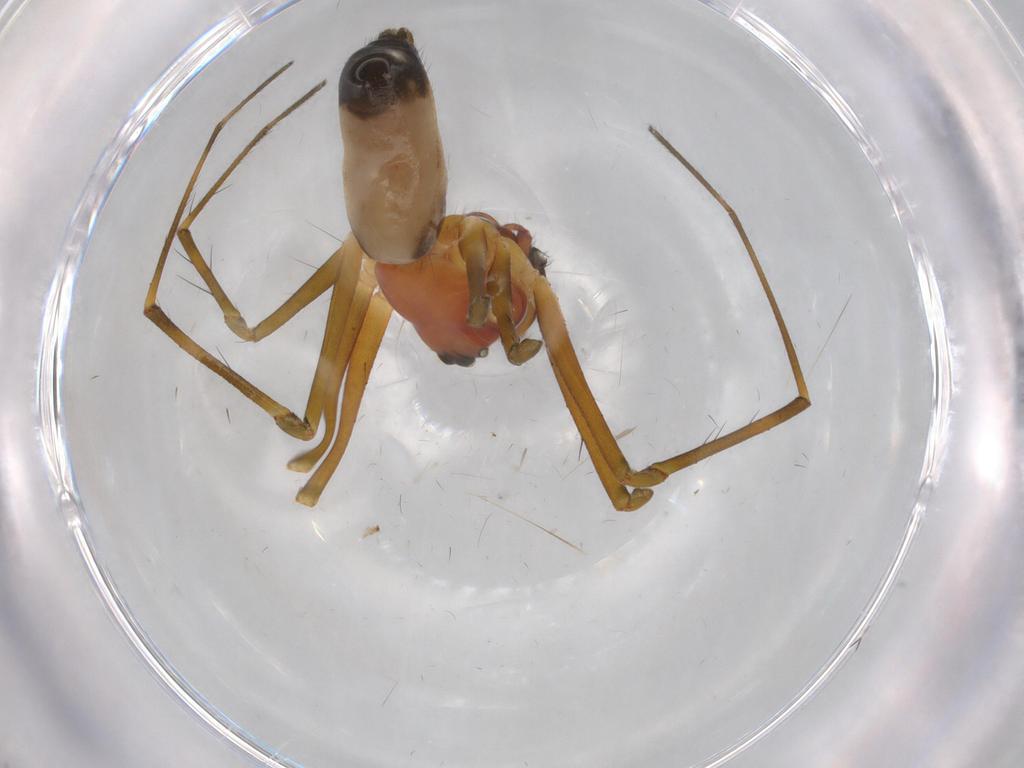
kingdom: Animalia
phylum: Arthropoda
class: Arachnida
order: Araneae
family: Linyphiidae
